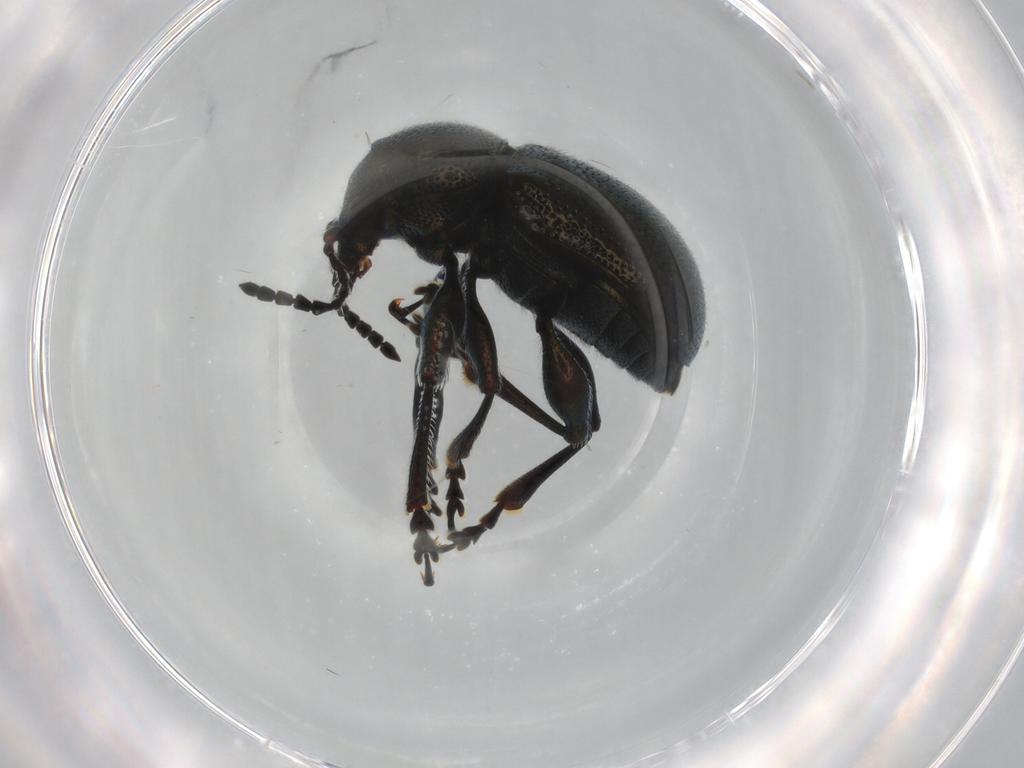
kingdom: Animalia
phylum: Arthropoda
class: Insecta
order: Coleoptera
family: Chrysomelidae
